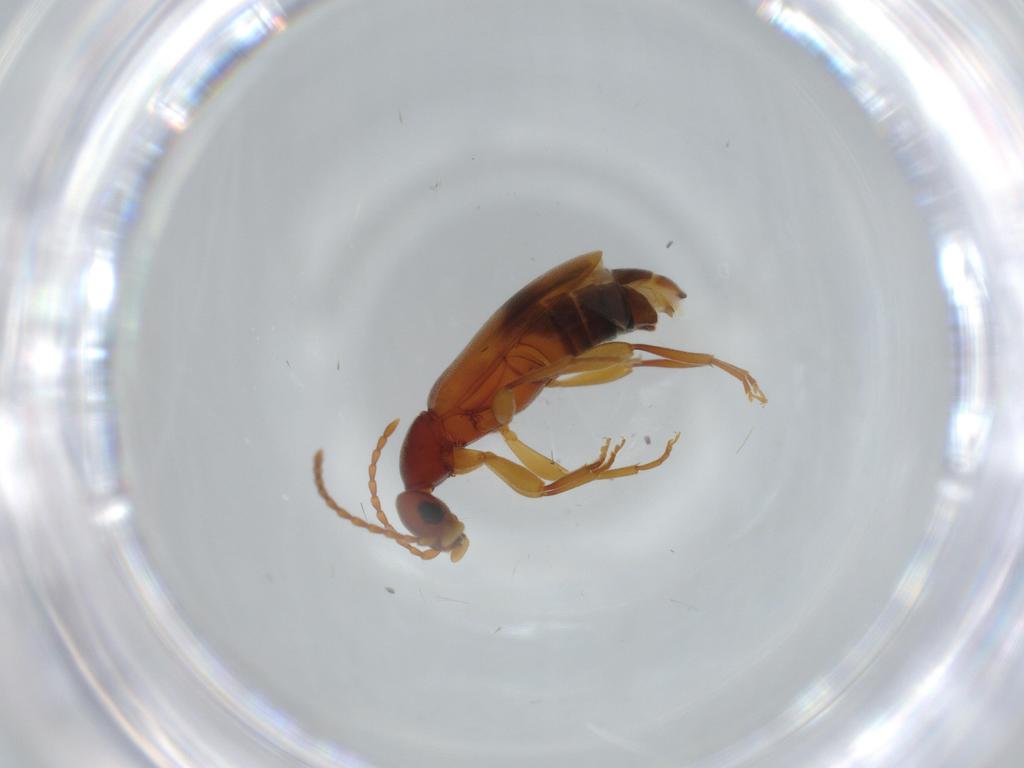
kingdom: Animalia
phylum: Arthropoda
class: Insecta
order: Coleoptera
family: Anthicidae
